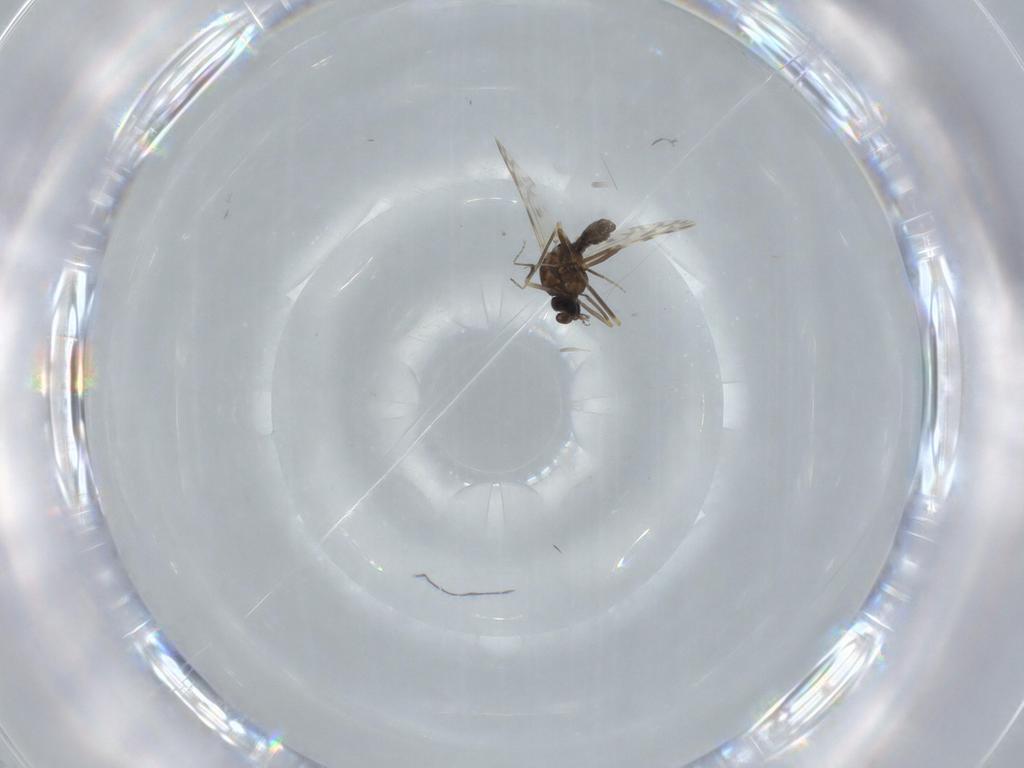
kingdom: Animalia
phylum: Arthropoda
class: Insecta
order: Diptera
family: Ceratopogonidae
